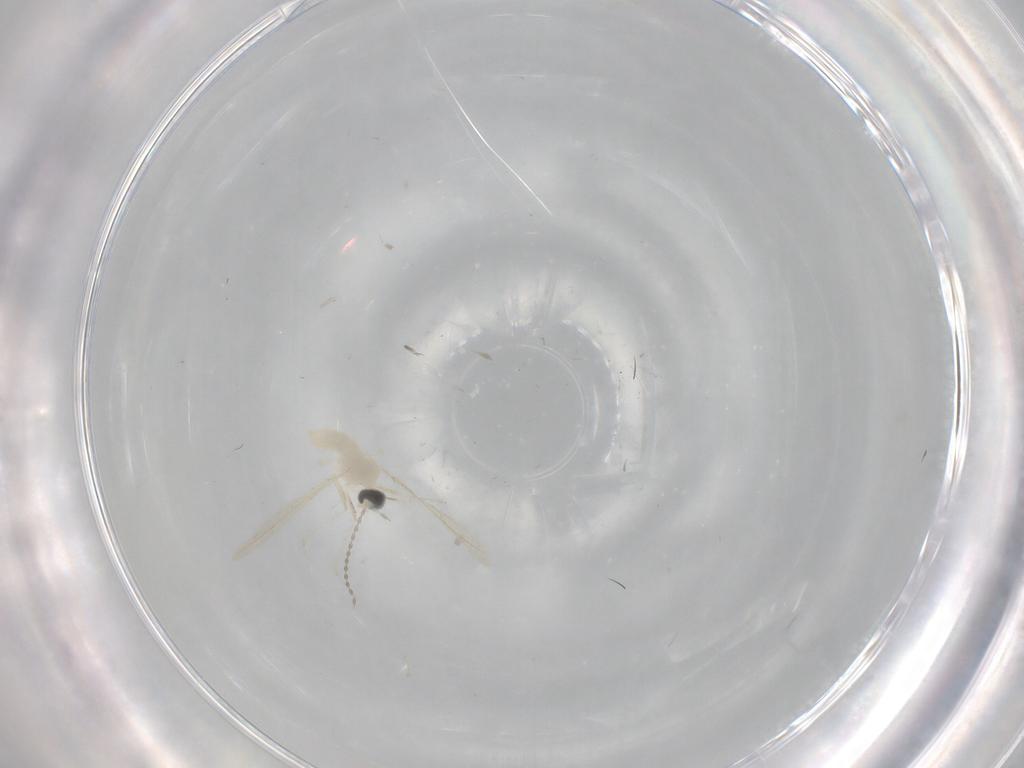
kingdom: Animalia
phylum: Arthropoda
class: Insecta
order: Diptera
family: Cecidomyiidae
